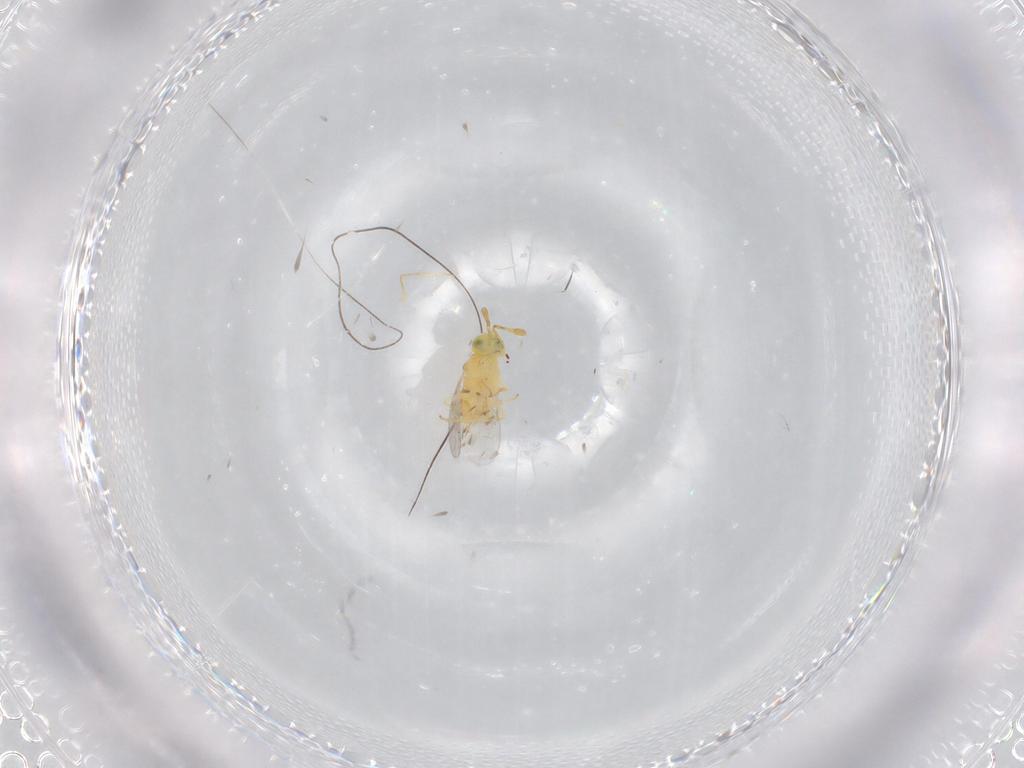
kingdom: Animalia
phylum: Arthropoda
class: Insecta
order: Hymenoptera
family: Encyrtidae
